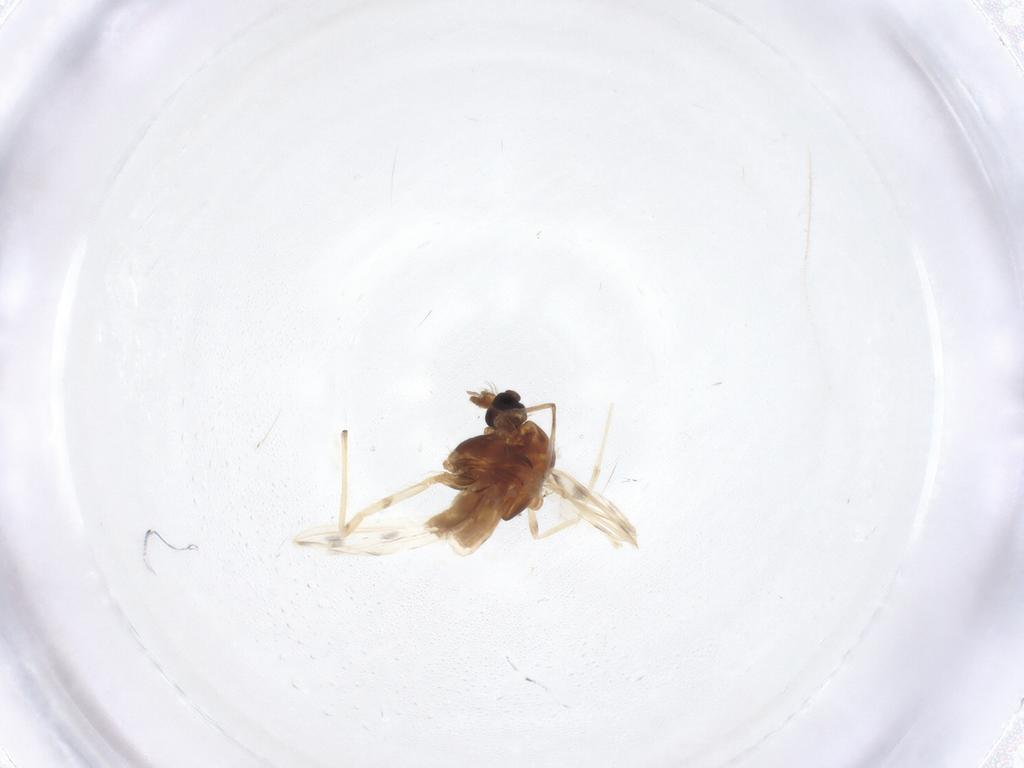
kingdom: Animalia
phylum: Arthropoda
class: Insecta
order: Diptera
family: Chironomidae
